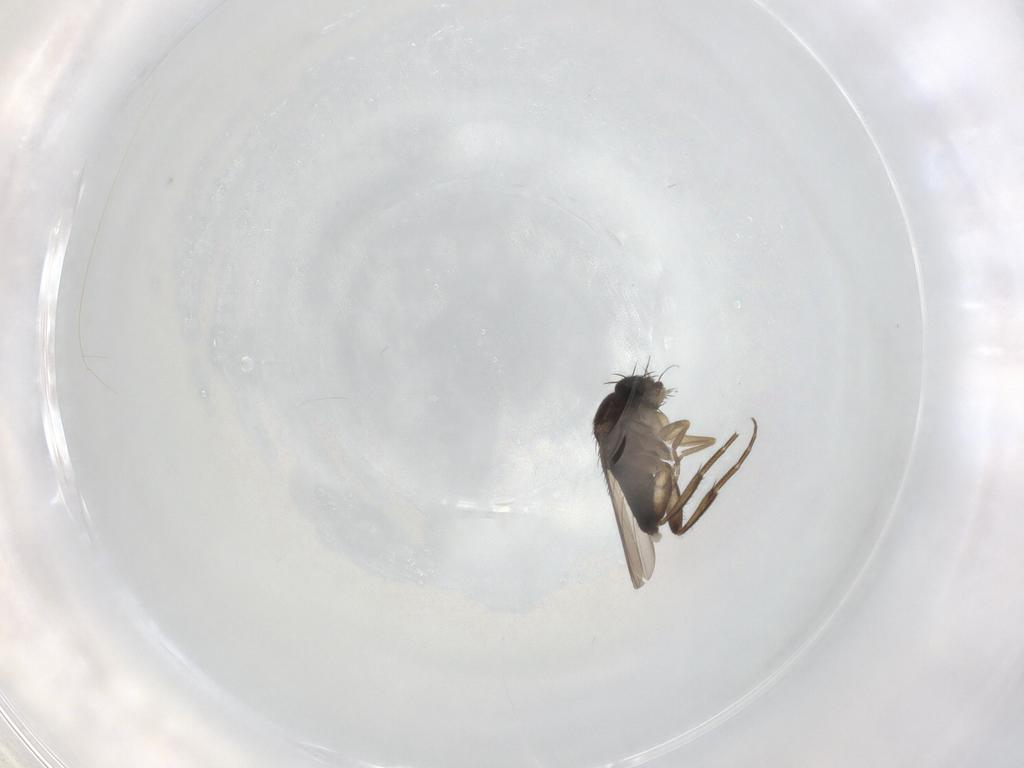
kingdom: Animalia
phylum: Arthropoda
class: Insecta
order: Diptera
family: Phoridae
